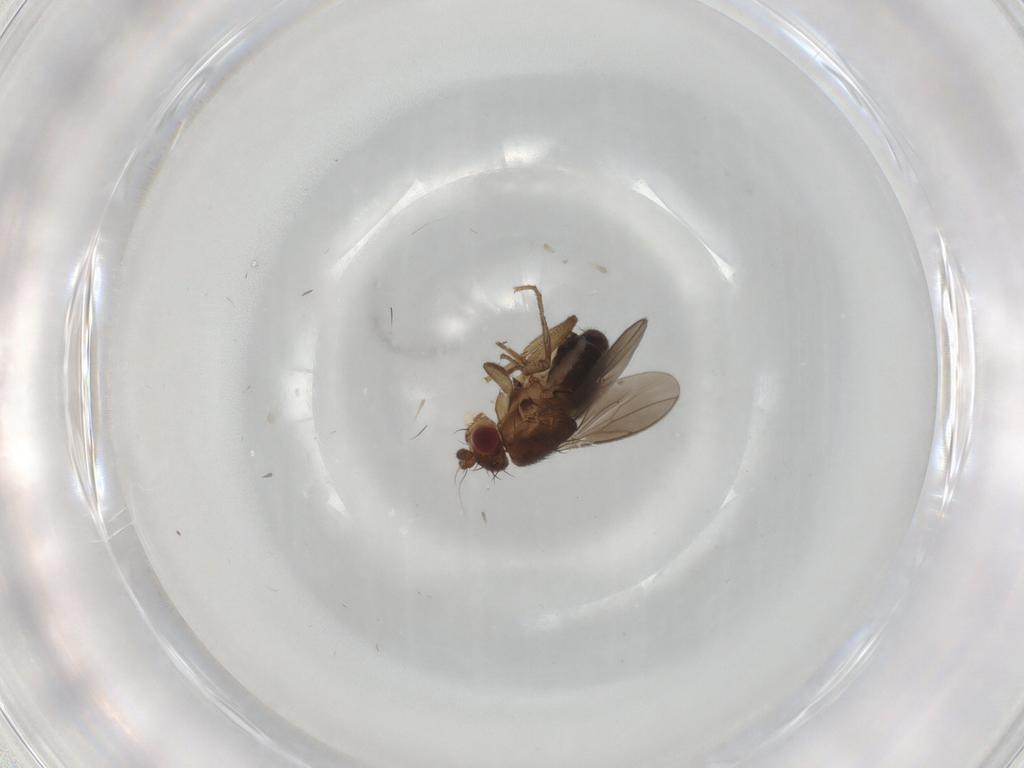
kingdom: Animalia
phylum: Arthropoda
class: Insecta
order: Diptera
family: Sphaeroceridae
